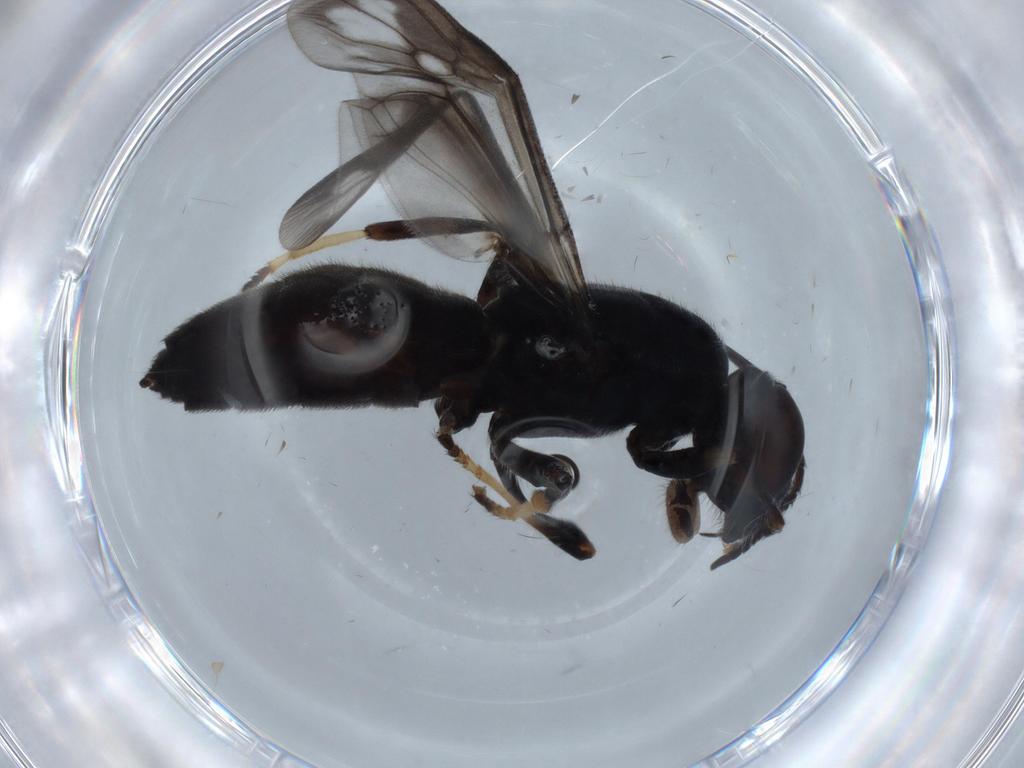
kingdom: Animalia
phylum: Arthropoda
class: Insecta
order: Diptera
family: Stratiomyidae
